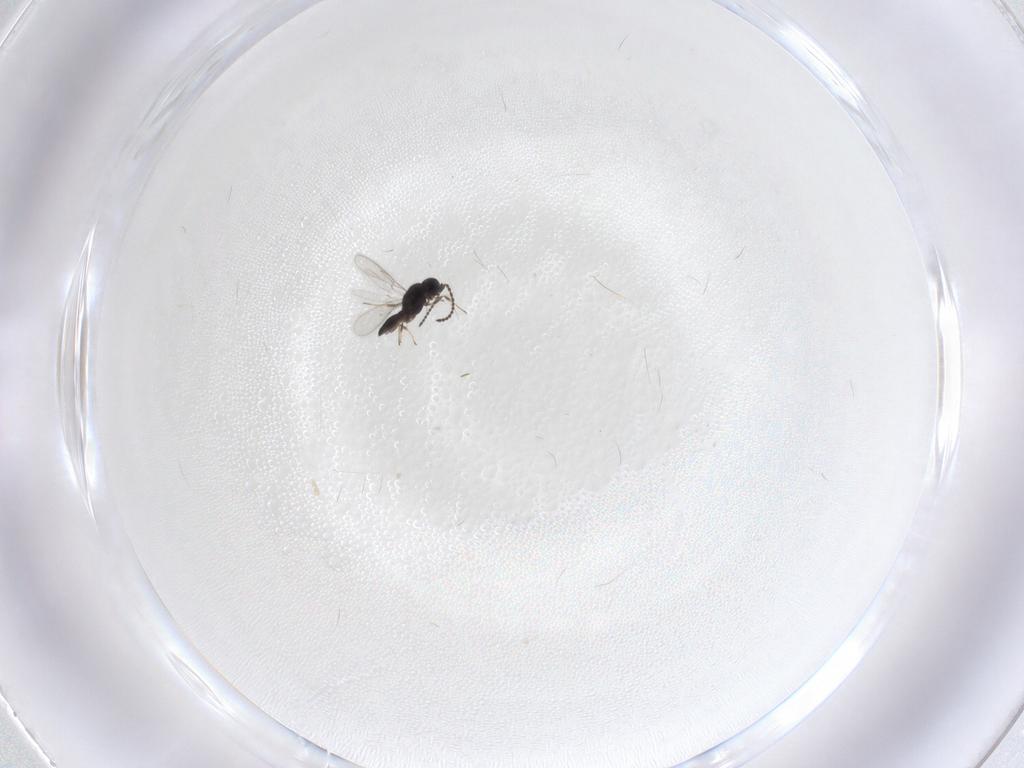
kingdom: Animalia
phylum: Arthropoda
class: Insecta
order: Hymenoptera
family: Scelionidae
